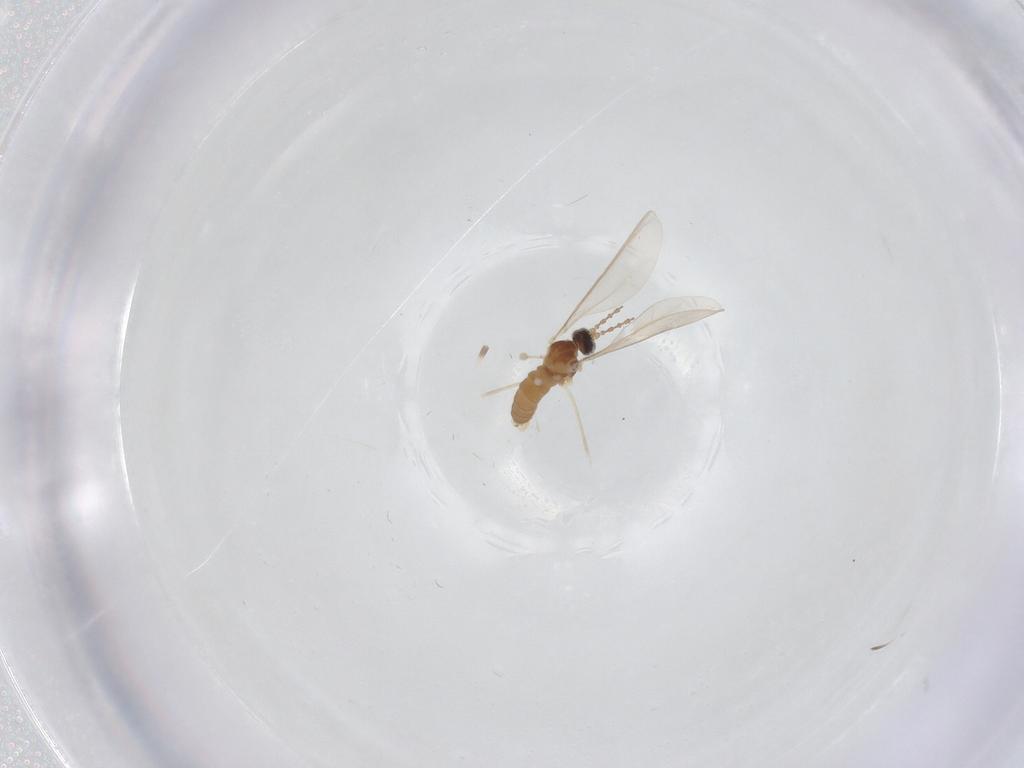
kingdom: Animalia
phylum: Arthropoda
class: Insecta
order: Diptera
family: Cecidomyiidae
